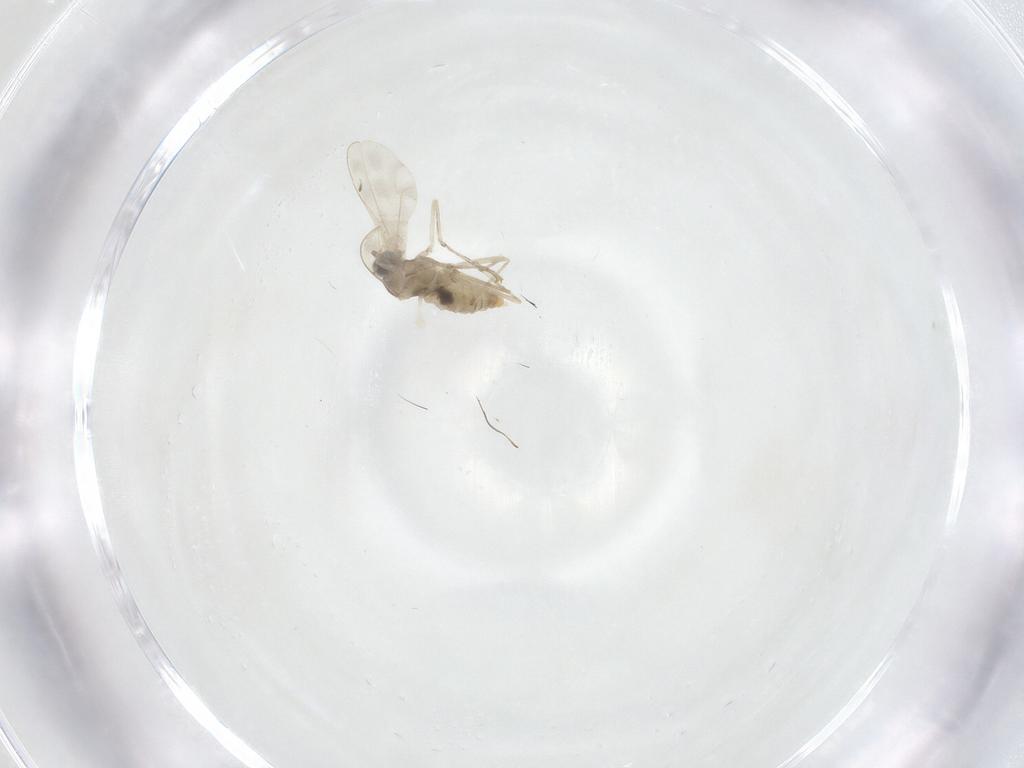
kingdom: Animalia
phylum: Arthropoda
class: Insecta
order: Diptera
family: Cecidomyiidae
